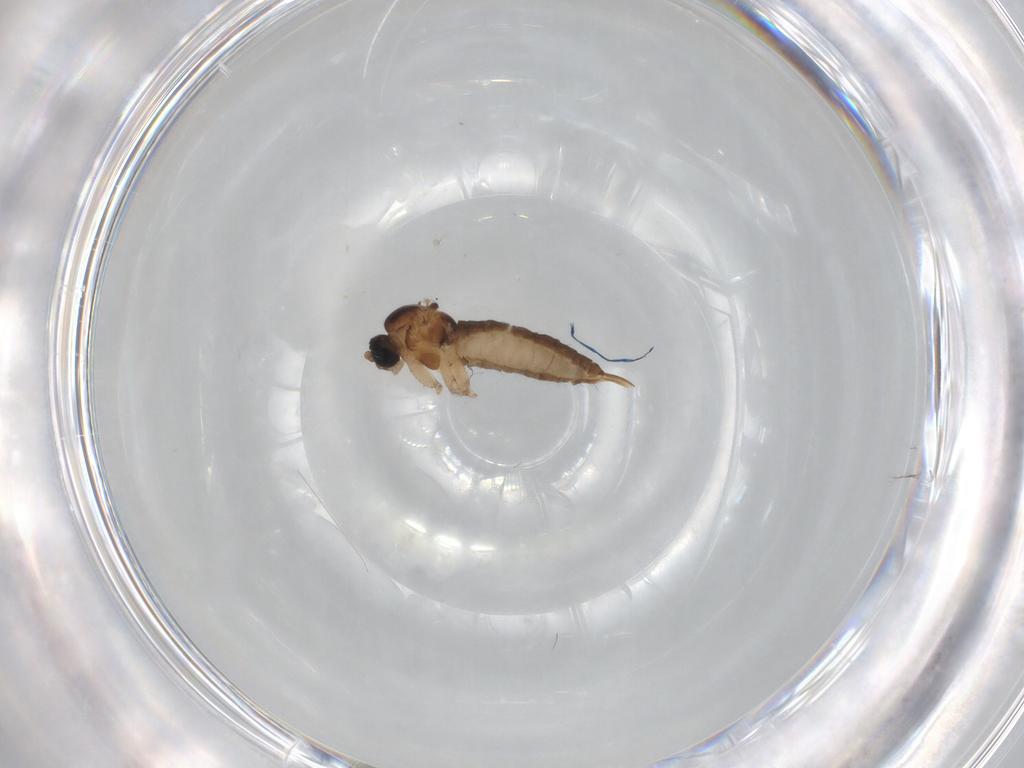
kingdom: Animalia
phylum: Arthropoda
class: Insecta
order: Diptera
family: Sciaridae
